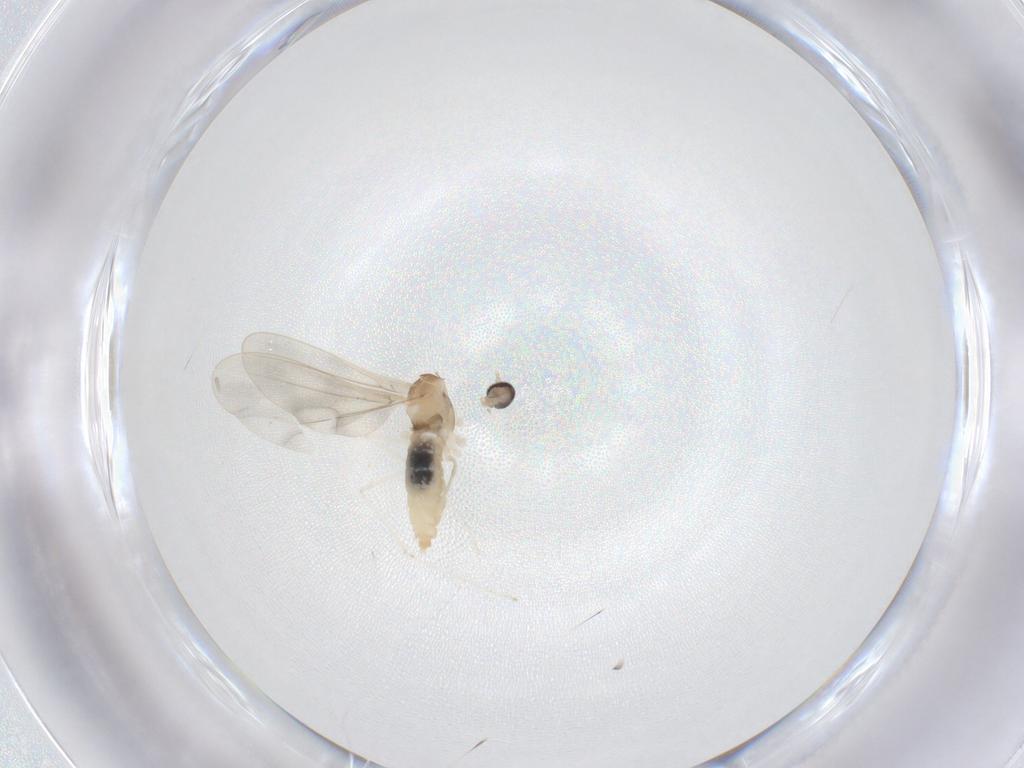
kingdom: Animalia
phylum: Arthropoda
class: Insecta
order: Diptera
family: Cecidomyiidae
